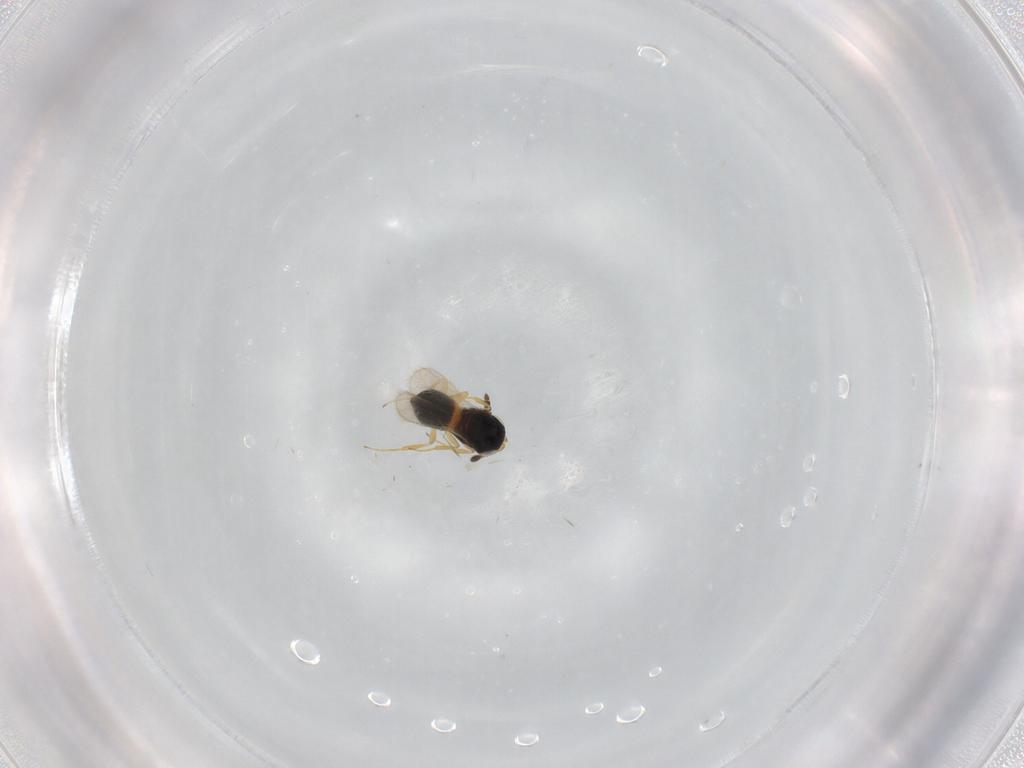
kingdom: Animalia
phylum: Arthropoda
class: Insecta
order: Hymenoptera
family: Scelionidae
